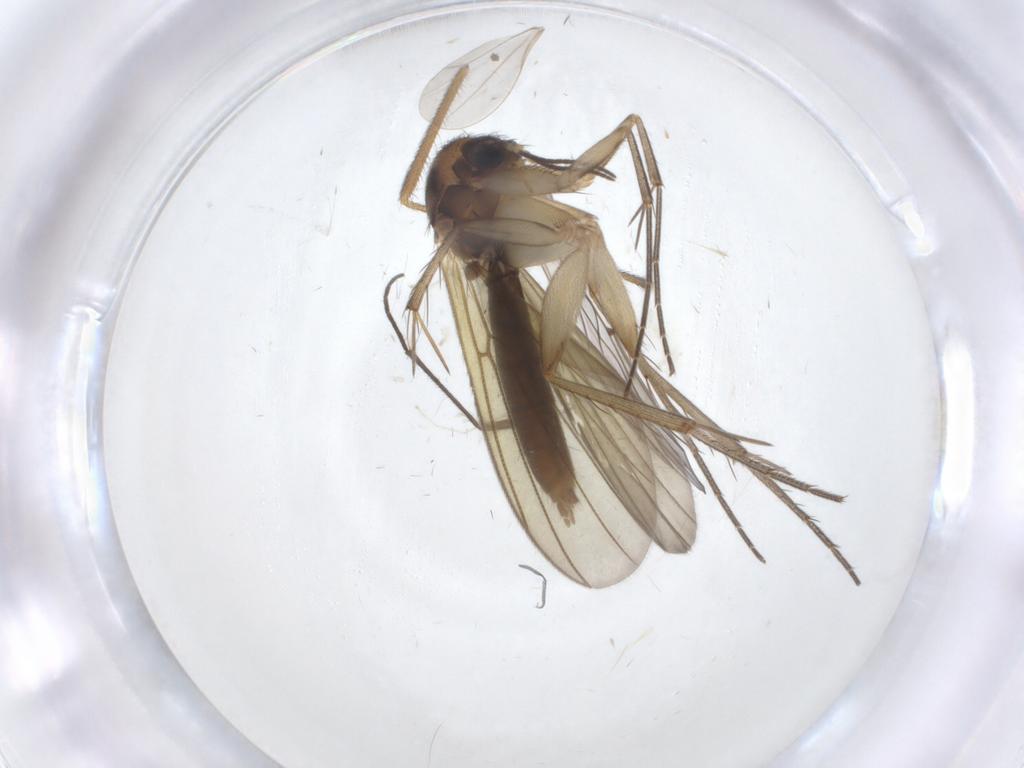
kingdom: Animalia
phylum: Arthropoda
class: Insecta
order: Diptera
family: Mycetophilidae
